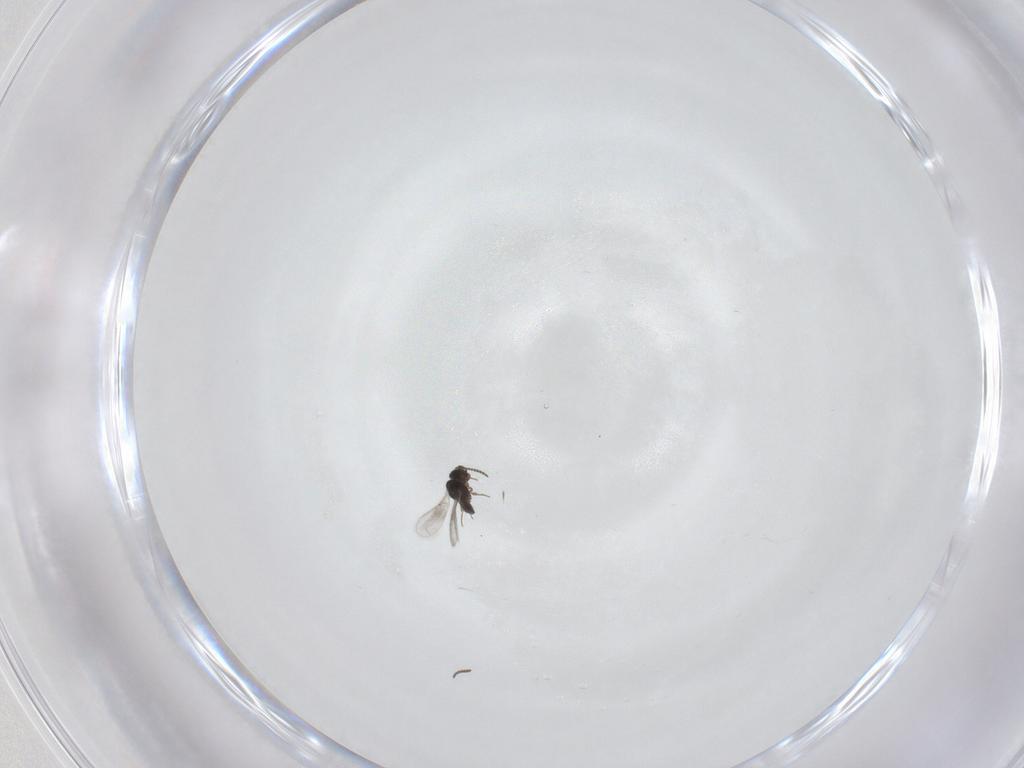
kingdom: Animalia
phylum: Arthropoda
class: Insecta
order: Hymenoptera
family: Scelionidae
